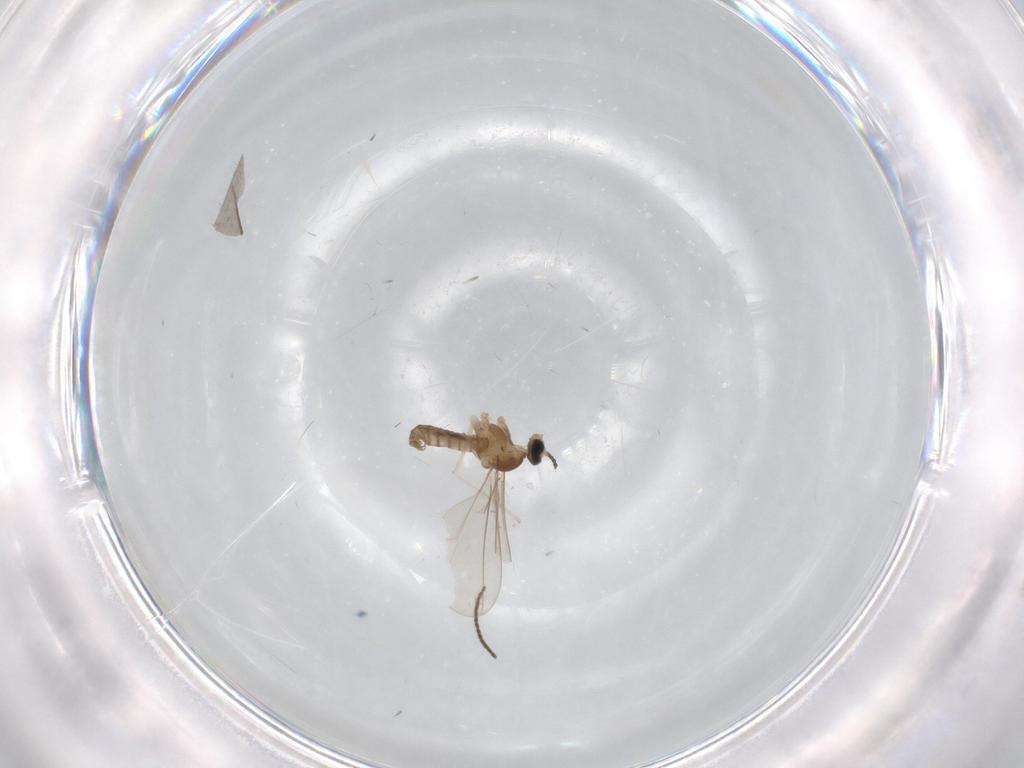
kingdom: Animalia
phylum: Arthropoda
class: Insecta
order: Diptera
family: Cecidomyiidae
